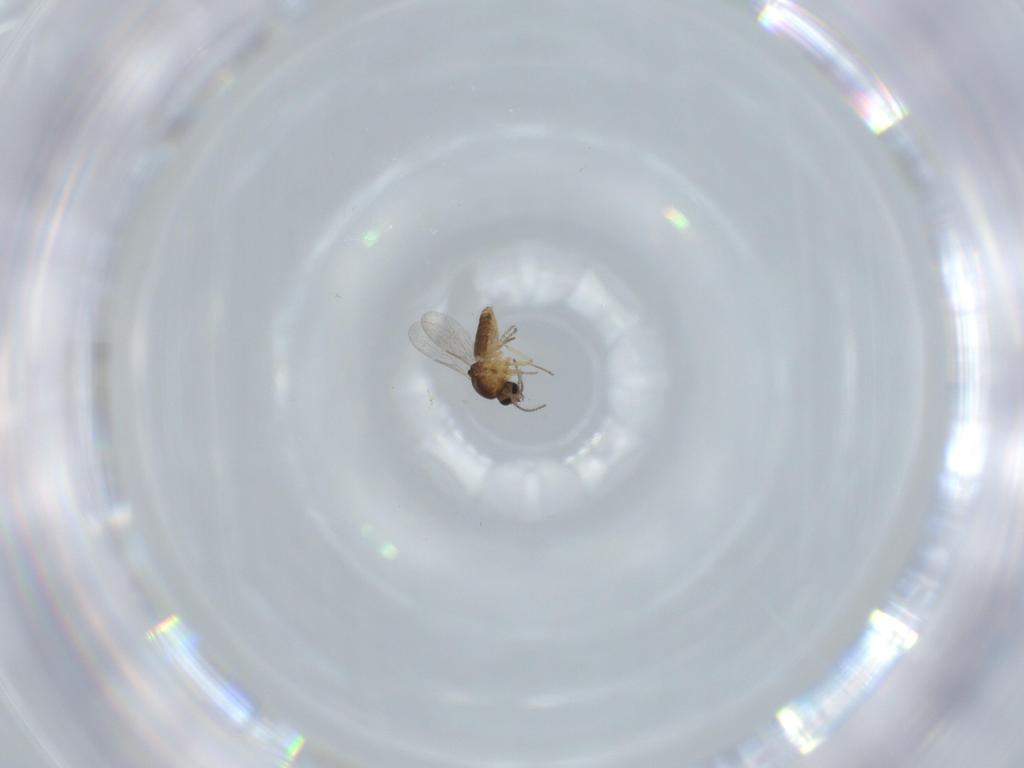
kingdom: Animalia
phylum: Arthropoda
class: Insecta
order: Diptera
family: Ceratopogonidae
